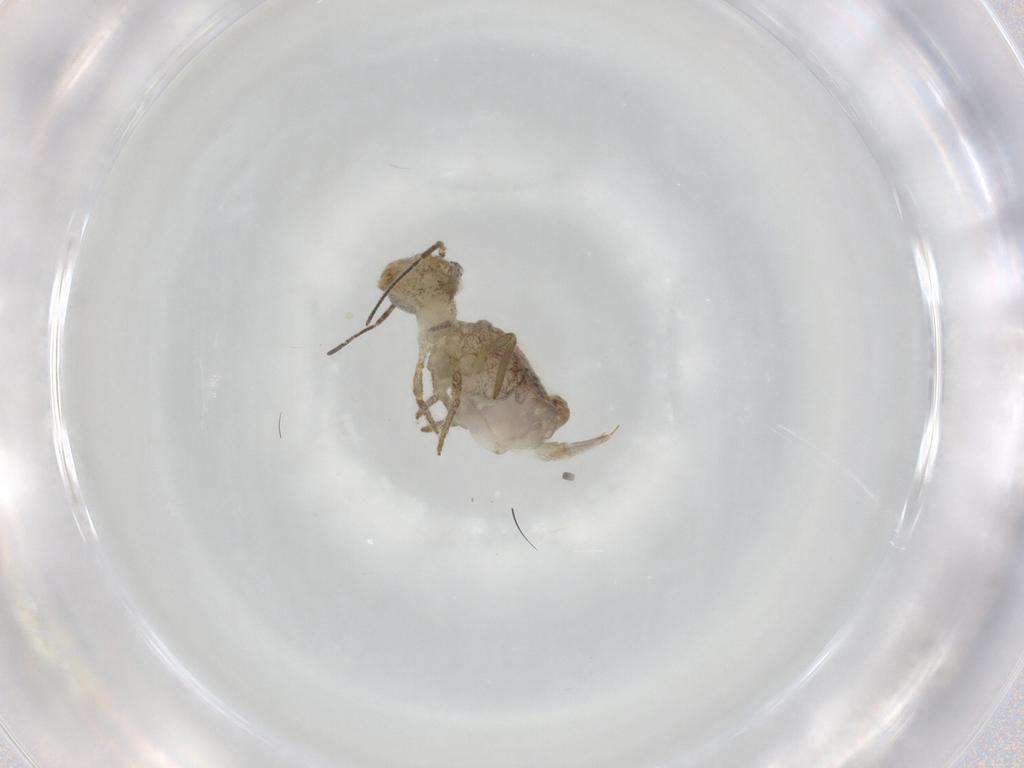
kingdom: Animalia
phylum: Arthropoda
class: Collembola
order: Symphypleona
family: Sminthuridae
